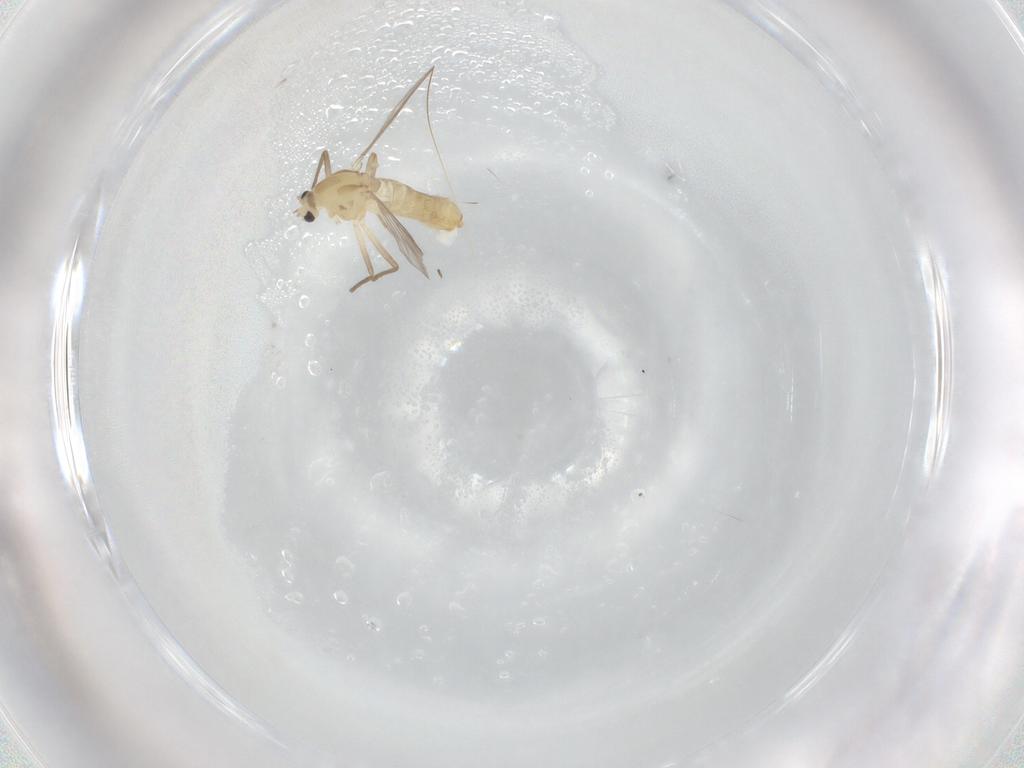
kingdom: Animalia
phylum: Arthropoda
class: Insecta
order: Diptera
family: Chironomidae
